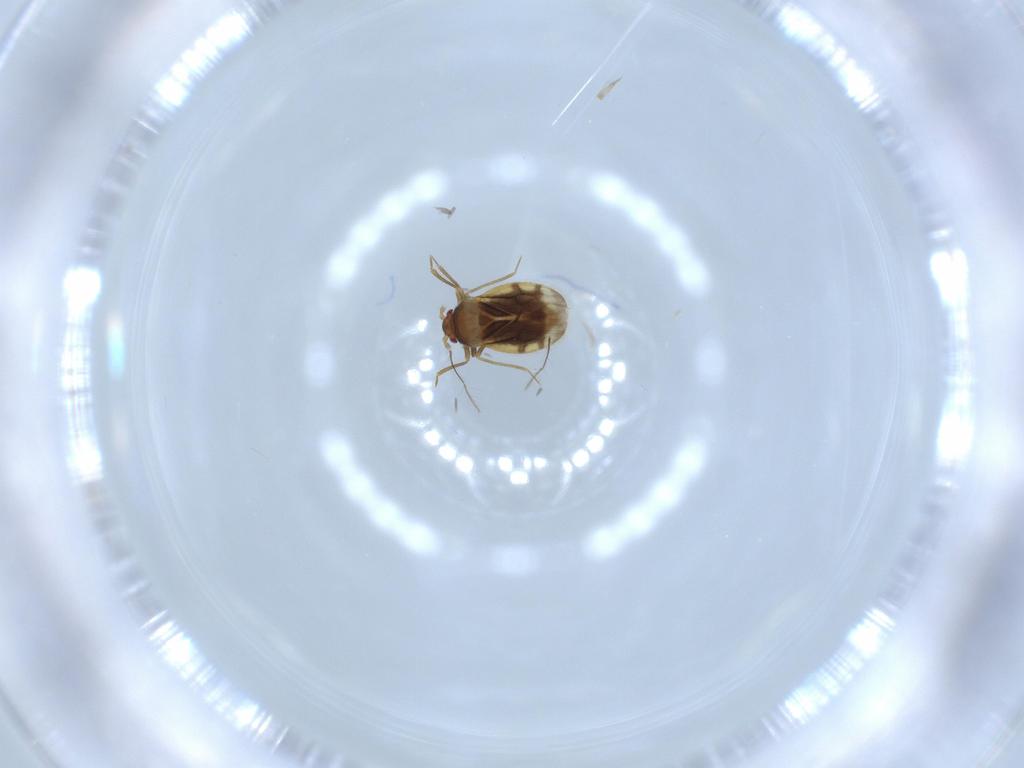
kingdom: Animalia
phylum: Arthropoda
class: Insecta
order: Hemiptera
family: Schizopteridae
